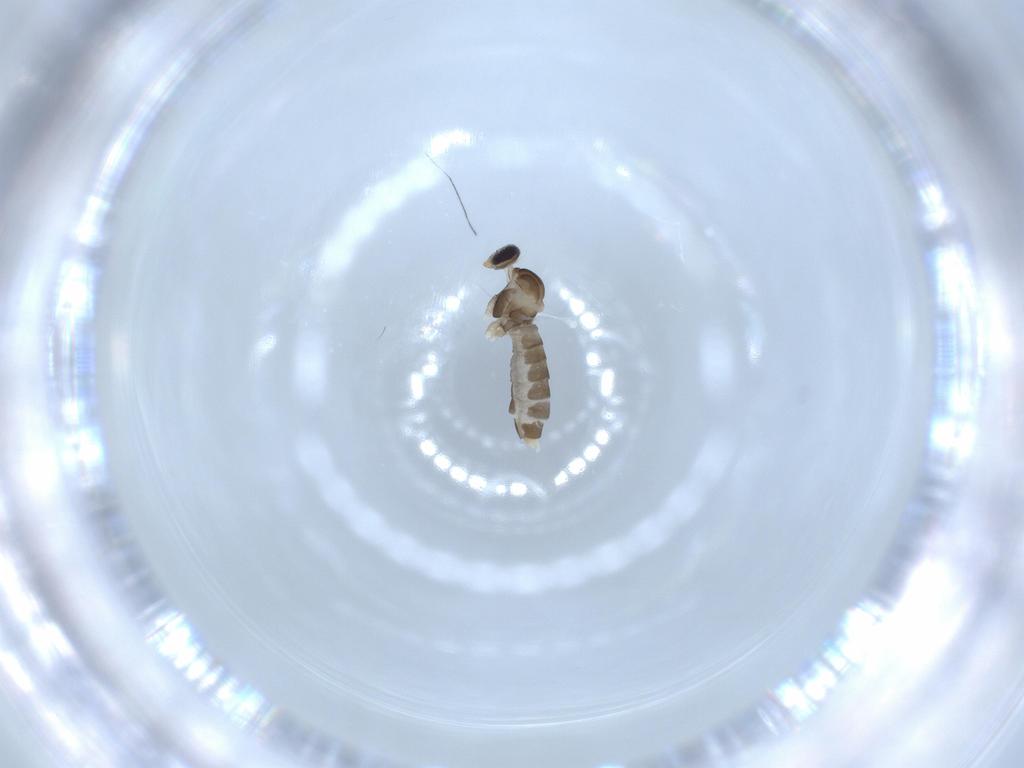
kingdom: Animalia
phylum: Arthropoda
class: Insecta
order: Diptera
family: Cecidomyiidae
